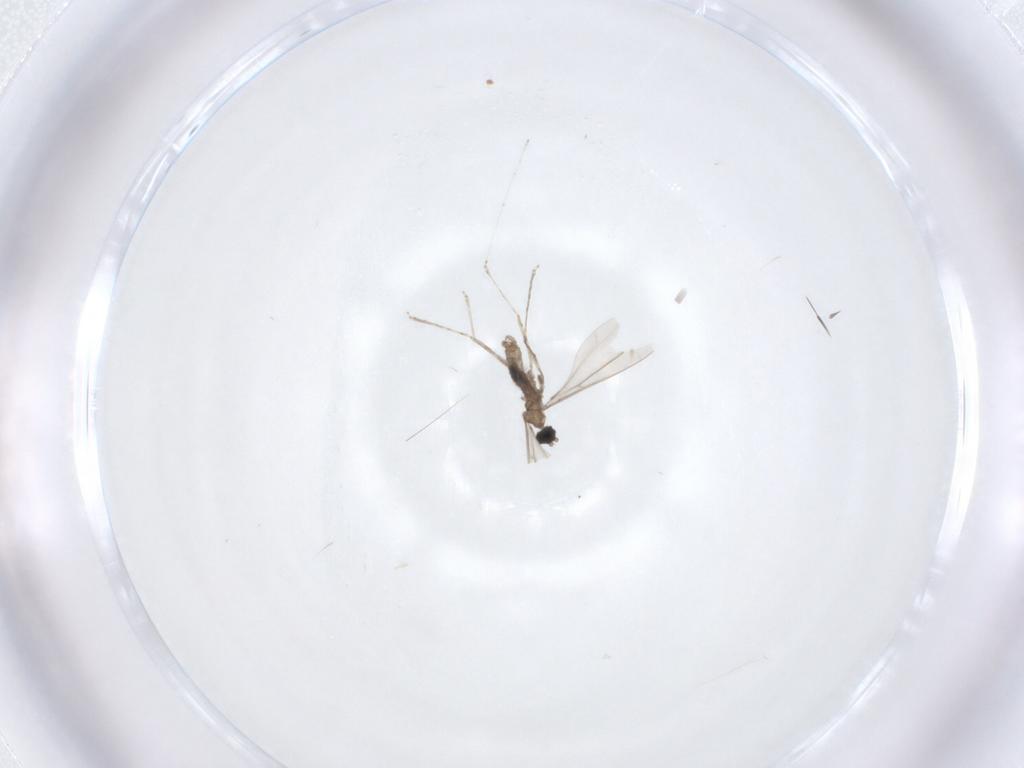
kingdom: Animalia
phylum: Arthropoda
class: Insecta
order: Diptera
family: Cecidomyiidae
